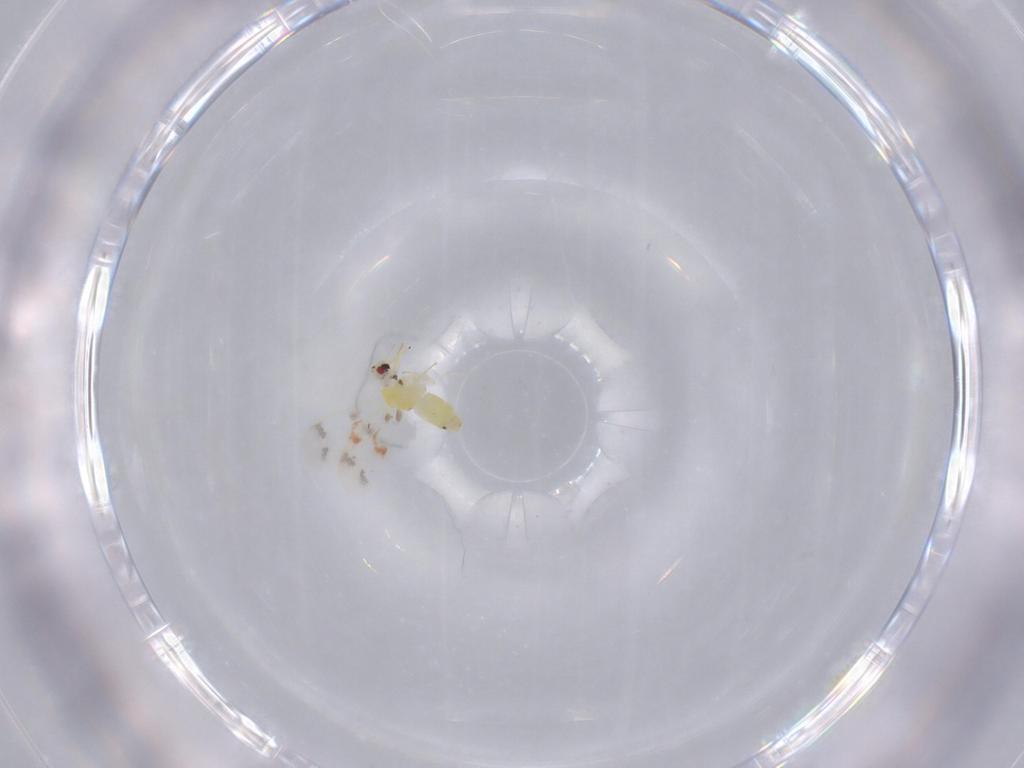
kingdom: Animalia
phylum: Arthropoda
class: Insecta
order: Hemiptera
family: Aleyrodidae
